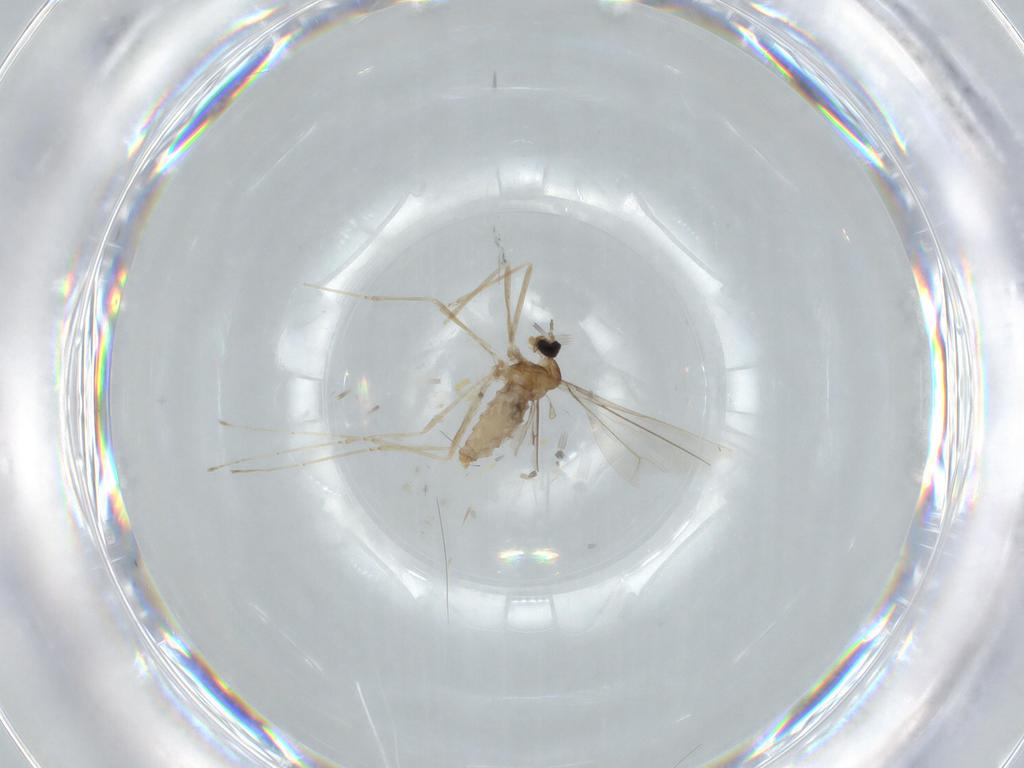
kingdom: Animalia
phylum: Arthropoda
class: Insecta
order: Diptera
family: Cecidomyiidae
